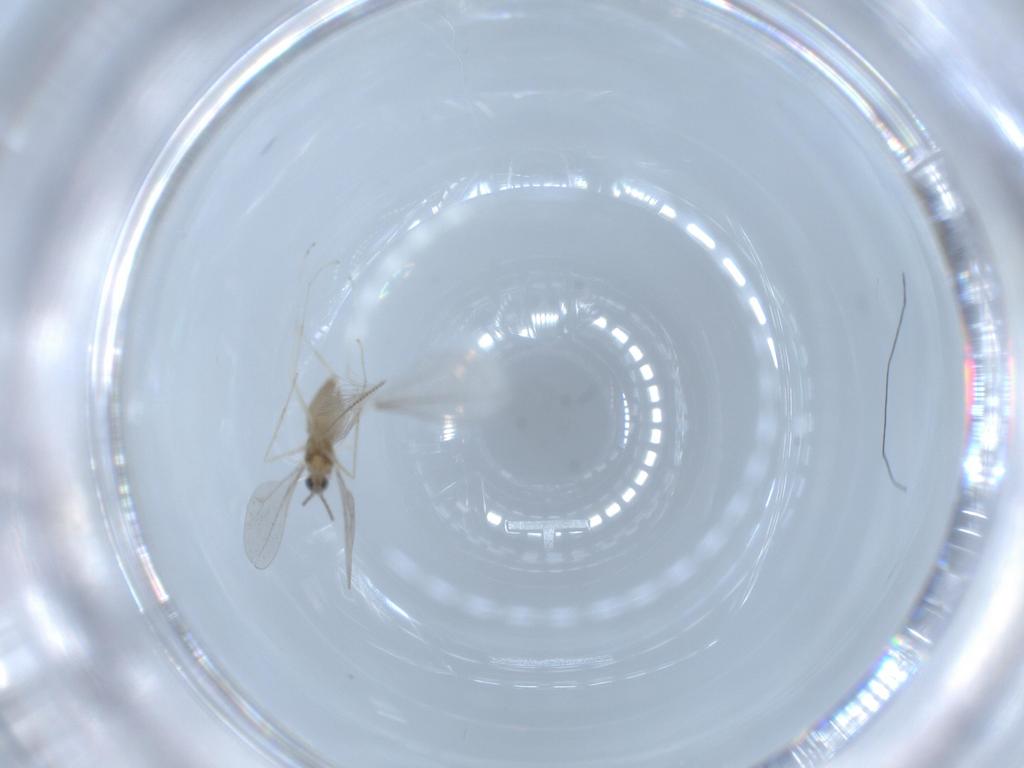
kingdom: Animalia
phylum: Arthropoda
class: Insecta
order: Diptera
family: Cecidomyiidae
